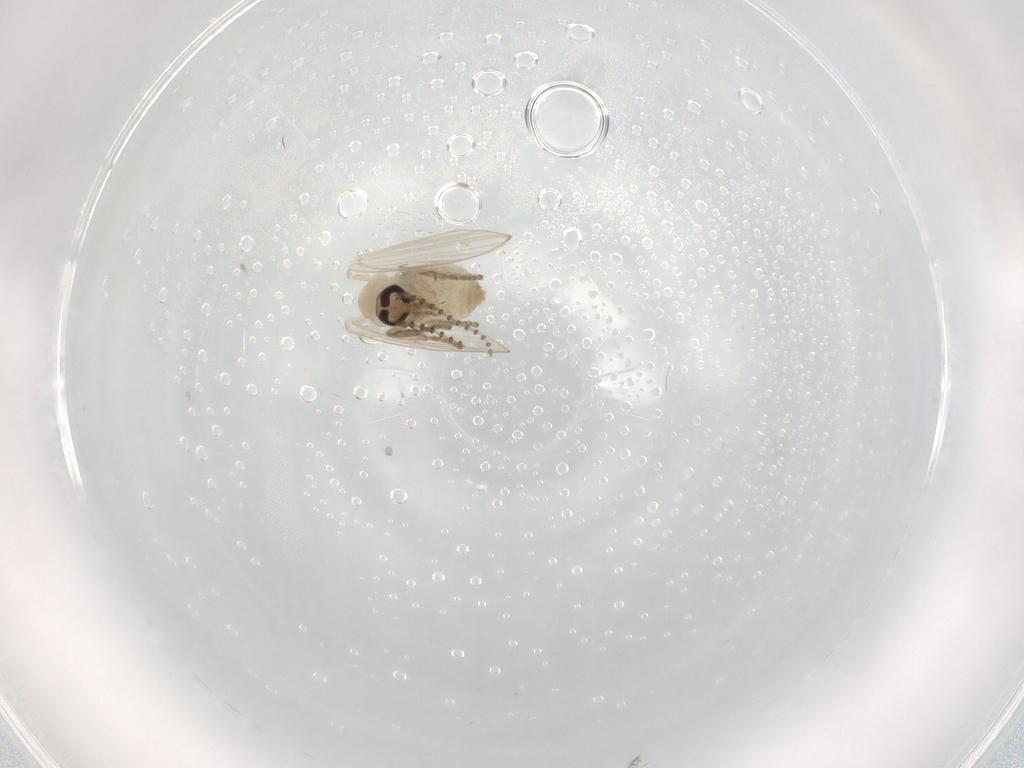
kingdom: Animalia
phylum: Arthropoda
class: Insecta
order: Diptera
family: Psychodidae
